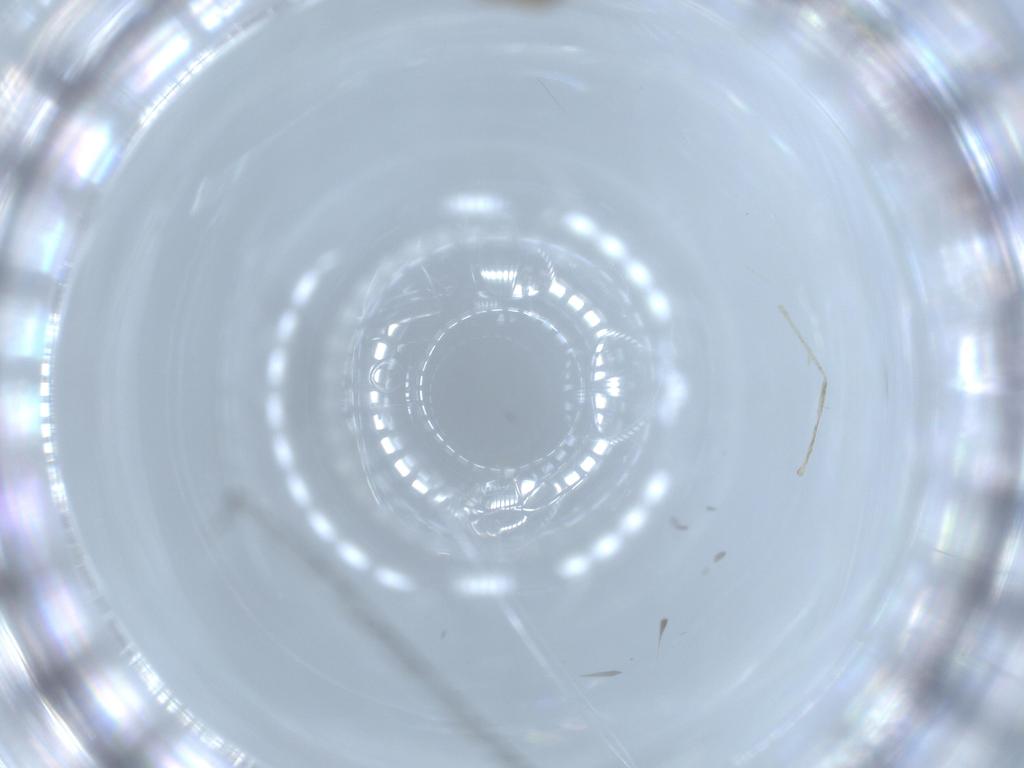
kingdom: Animalia
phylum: Arthropoda
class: Insecta
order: Diptera
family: Cecidomyiidae
